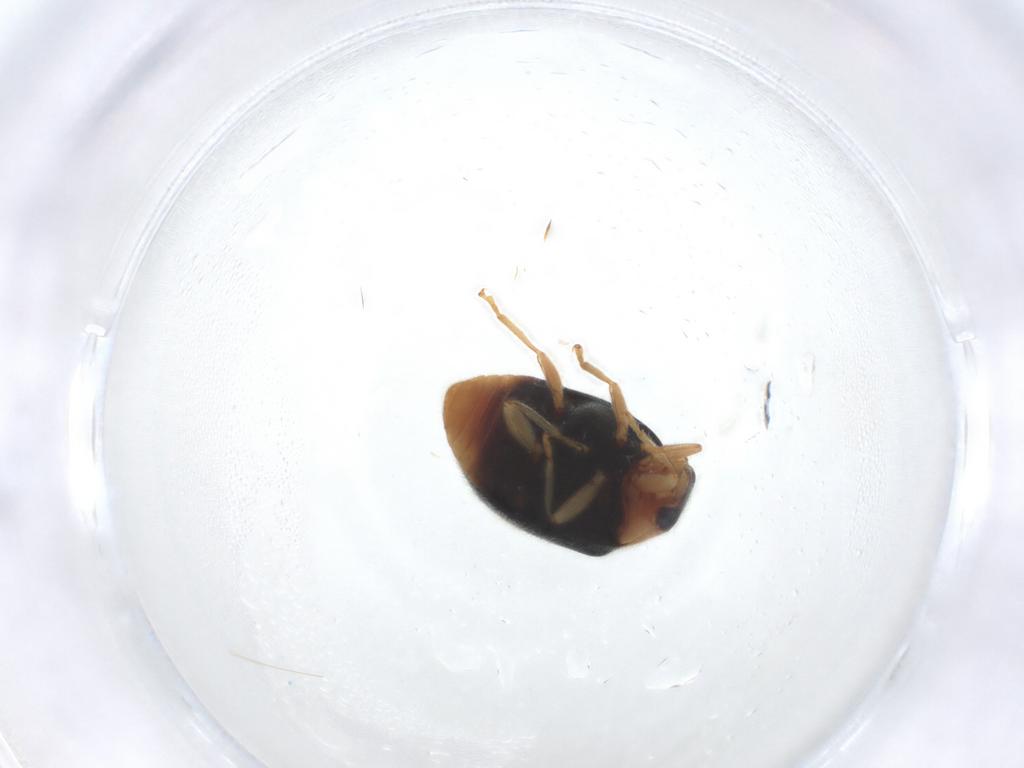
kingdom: Animalia
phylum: Arthropoda
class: Insecta
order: Coleoptera
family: Coccinellidae
